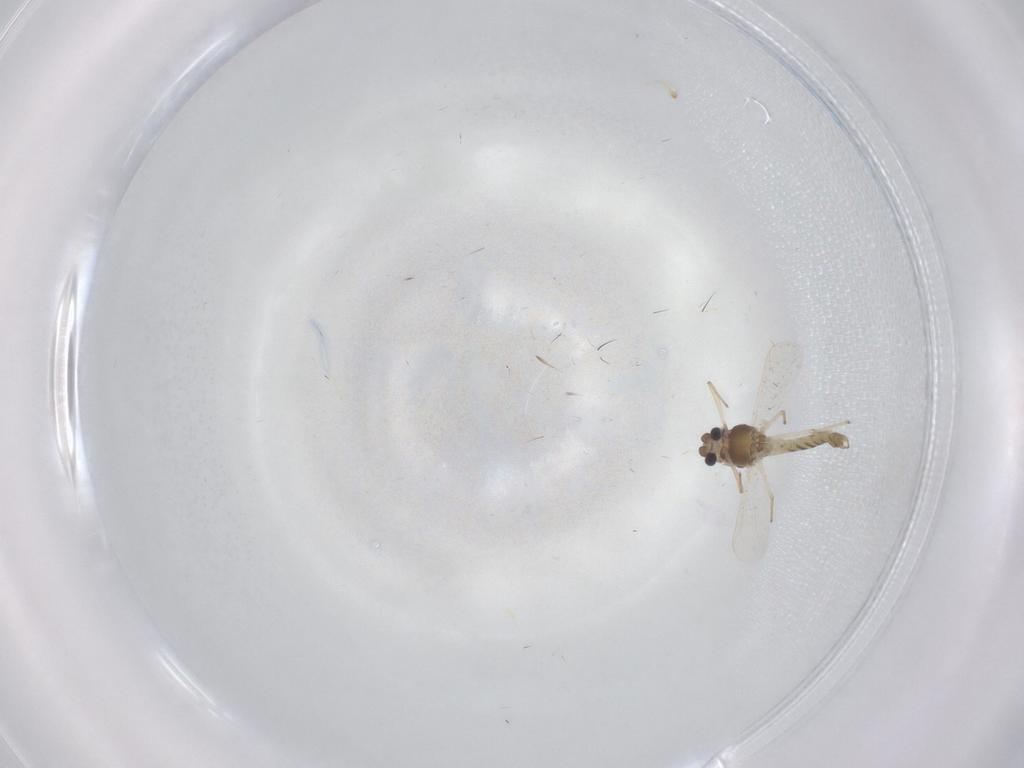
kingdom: Animalia
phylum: Arthropoda
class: Insecta
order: Diptera
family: Chironomidae
